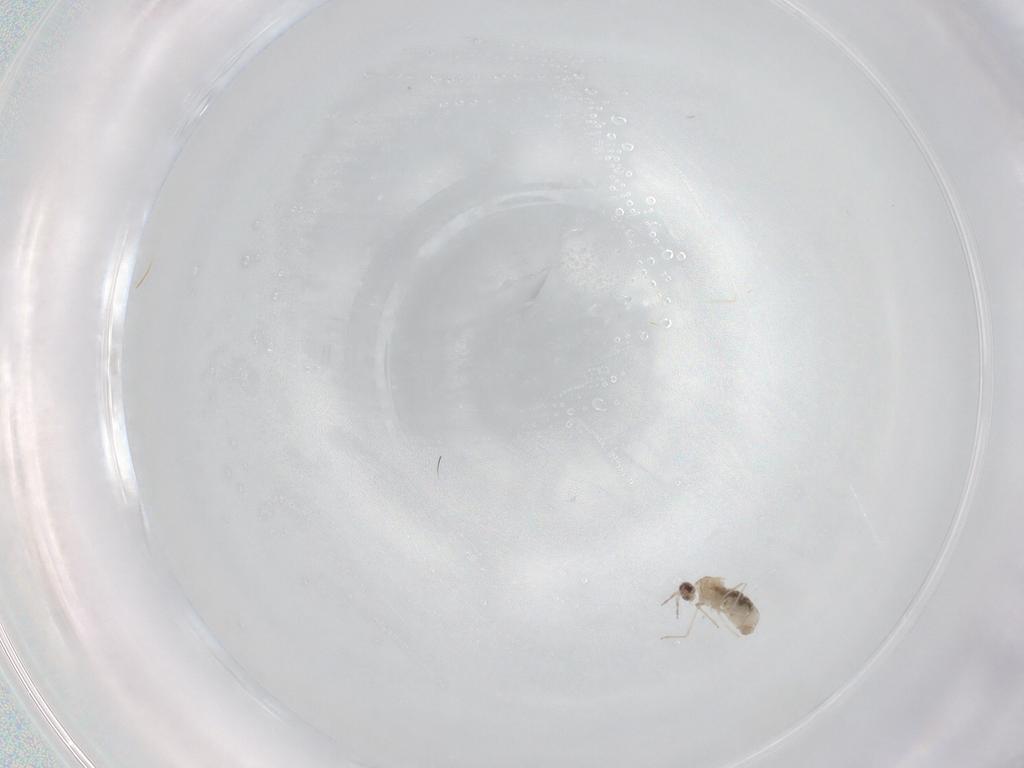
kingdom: Animalia
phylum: Arthropoda
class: Insecta
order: Diptera
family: Cecidomyiidae
